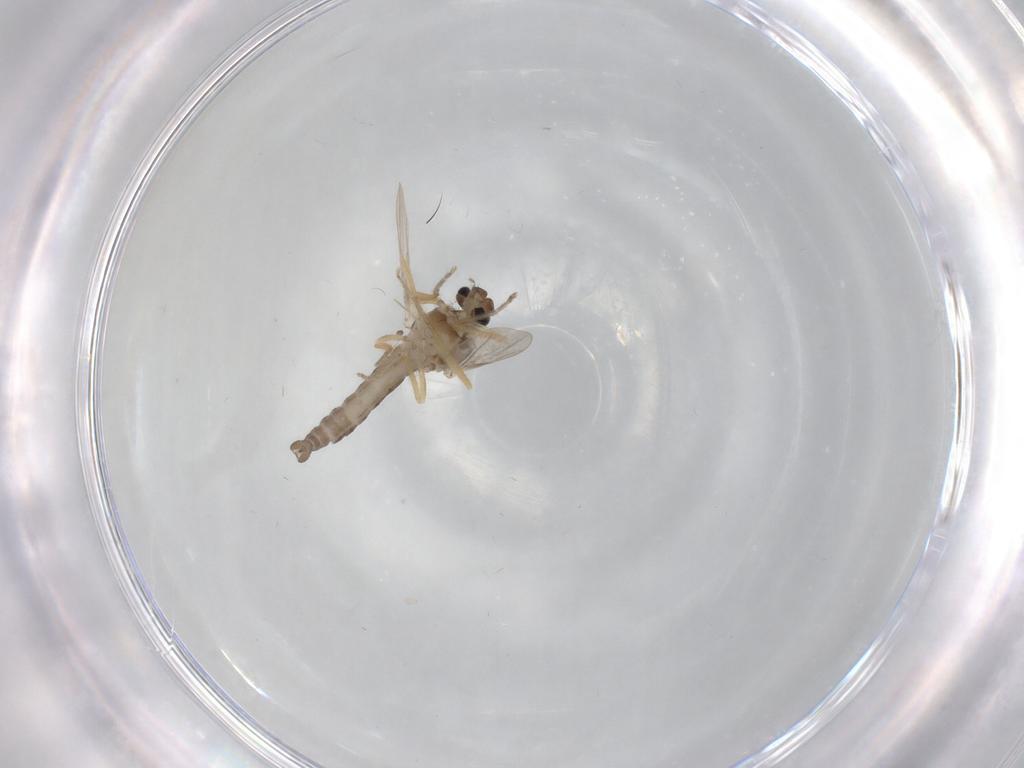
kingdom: Animalia
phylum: Arthropoda
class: Insecta
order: Diptera
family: Ceratopogonidae
